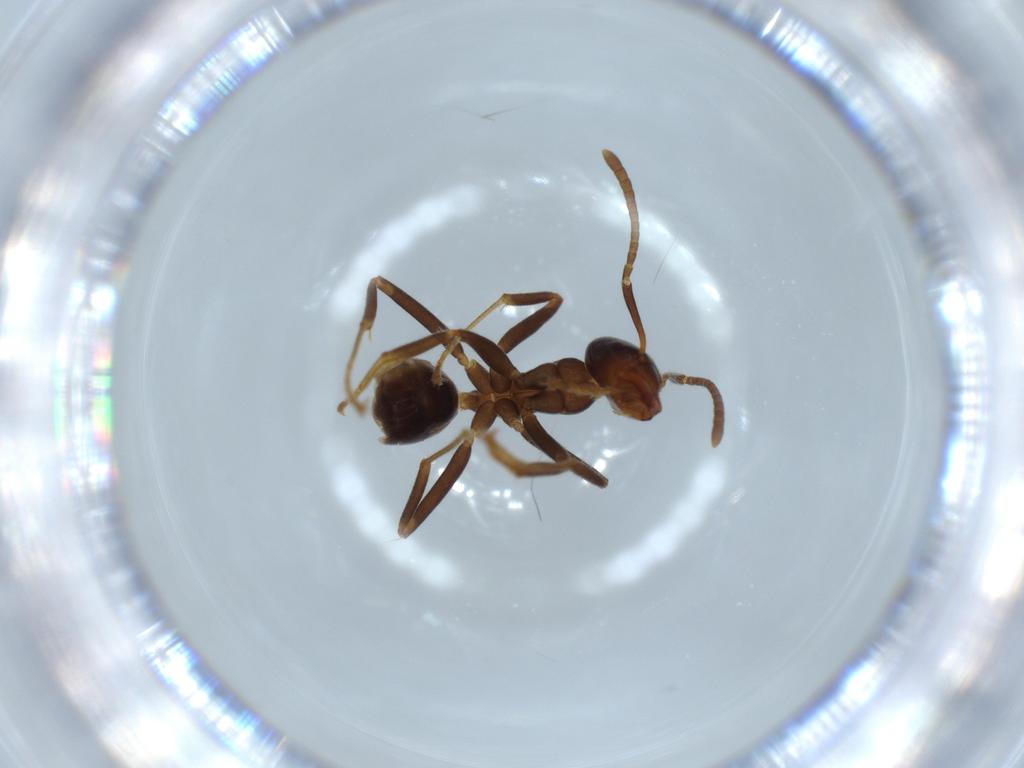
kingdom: Animalia
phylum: Arthropoda
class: Insecta
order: Hymenoptera
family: Formicidae
